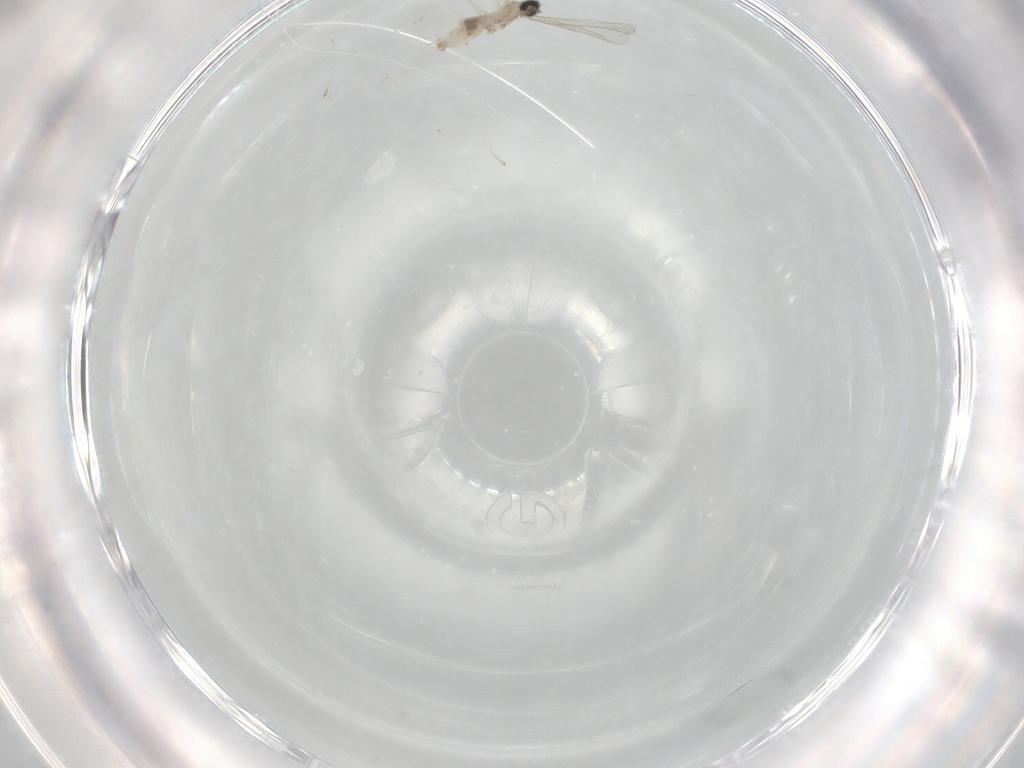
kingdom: Animalia
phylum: Arthropoda
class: Insecta
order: Diptera
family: Cecidomyiidae
